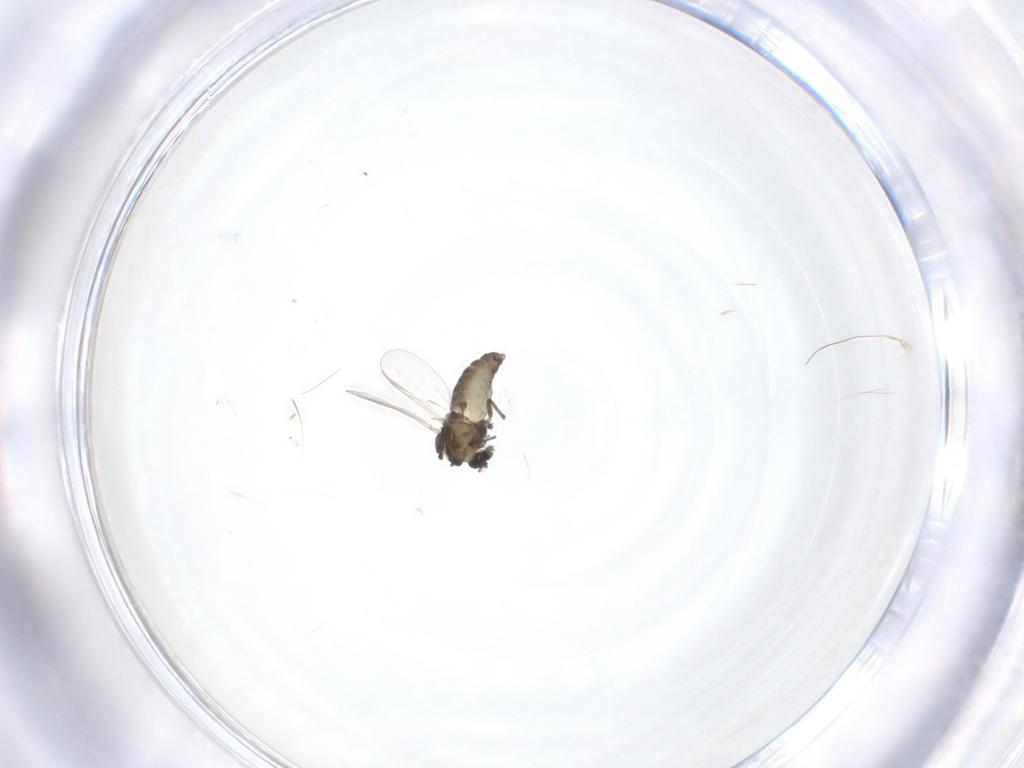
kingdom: Animalia
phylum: Arthropoda
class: Insecta
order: Diptera
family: Chironomidae
